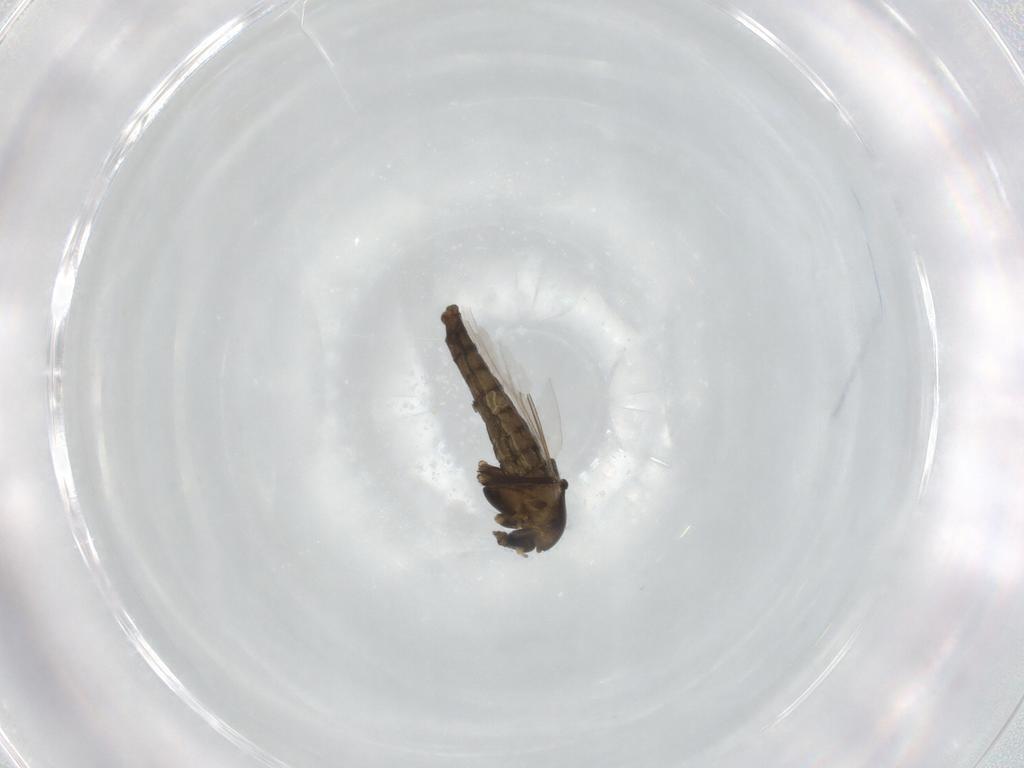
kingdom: Animalia
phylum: Arthropoda
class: Insecta
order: Diptera
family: Chironomidae
